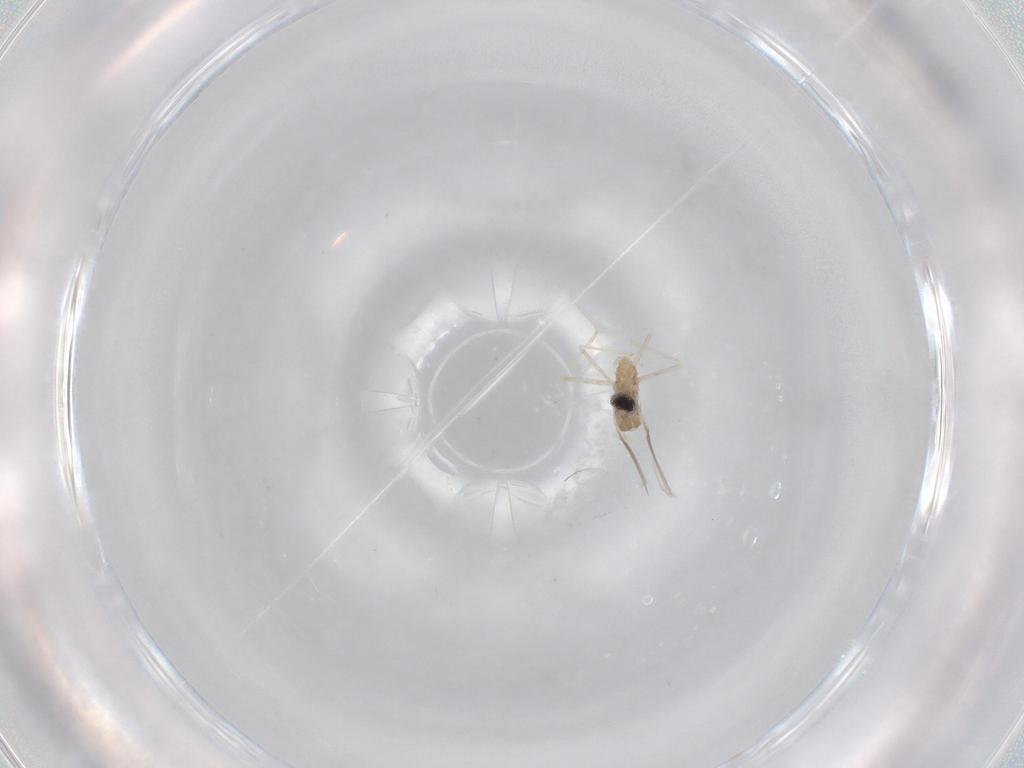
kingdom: Animalia
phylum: Arthropoda
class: Insecta
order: Diptera
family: Cecidomyiidae
